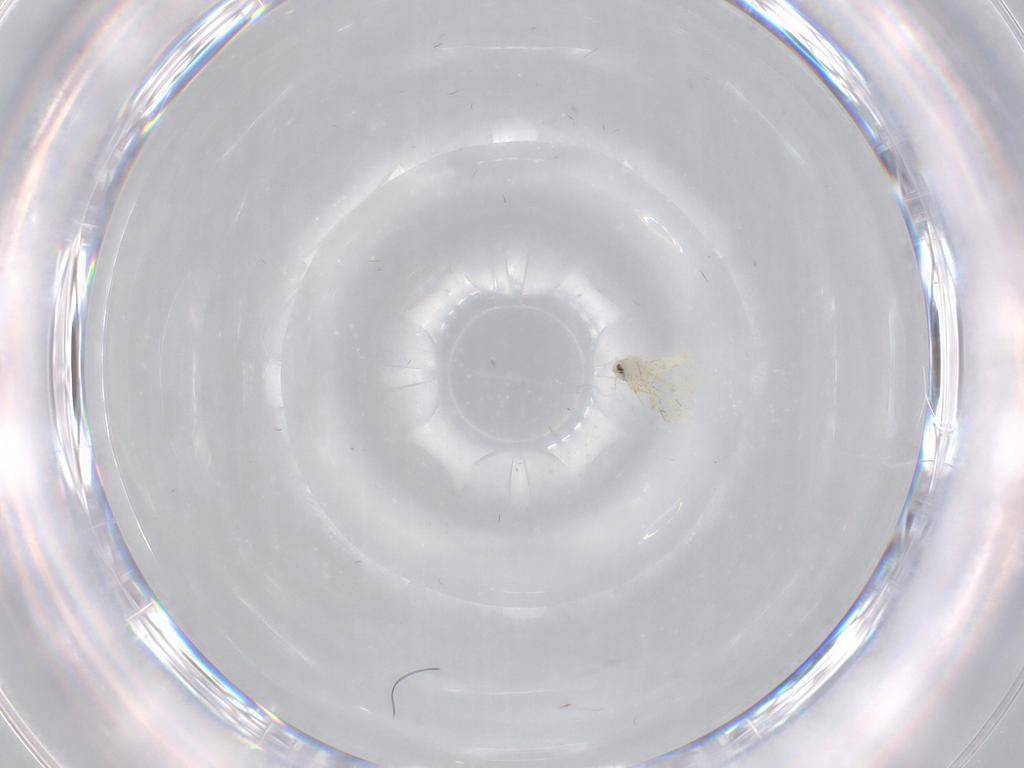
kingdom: Animalia
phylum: Arthropoda
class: Insecta
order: Hemiptera
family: Aleyrodidae
